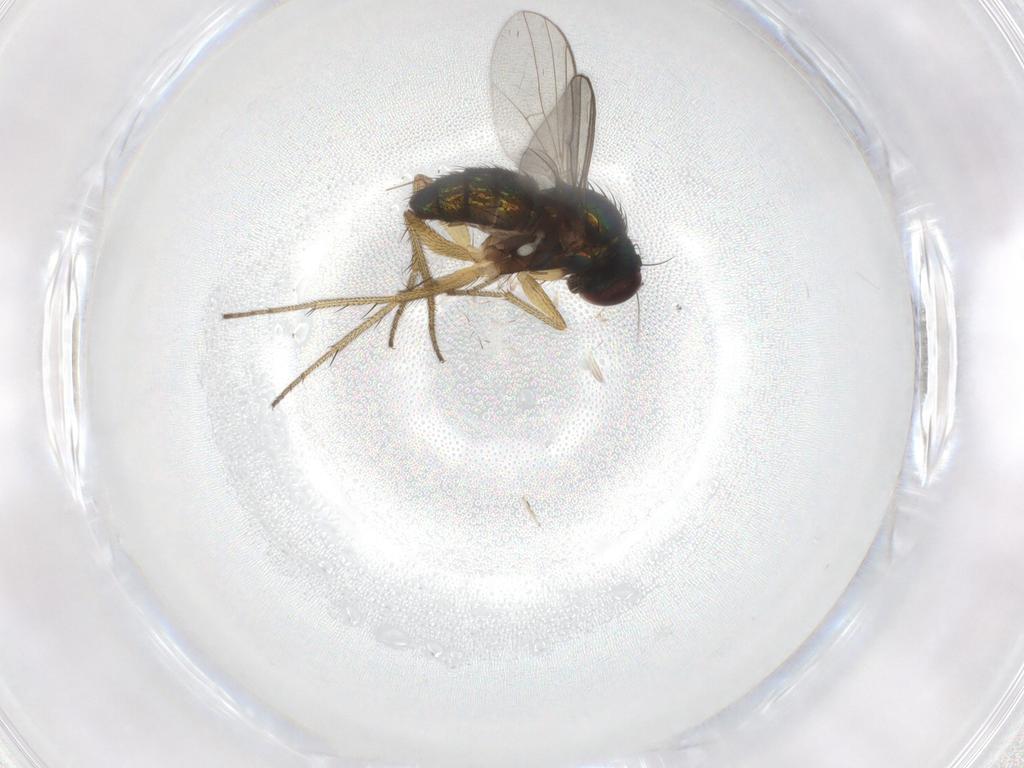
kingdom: Animalia
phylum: Arthropoda
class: Insecta
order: Diptera
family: Chironomidae
